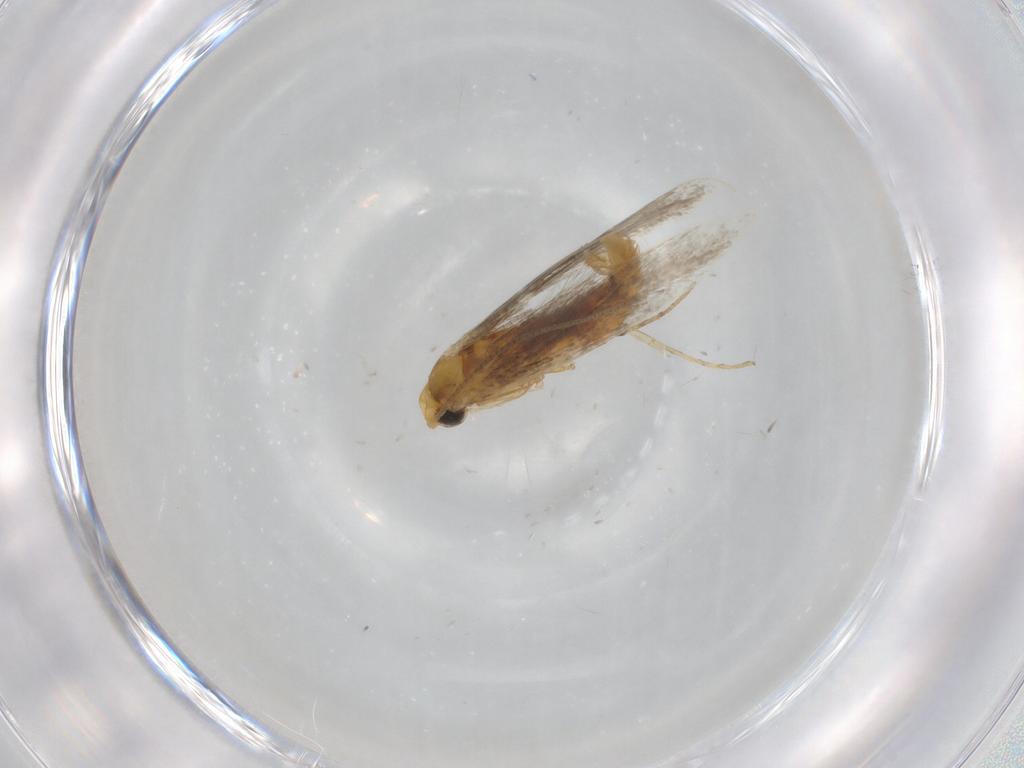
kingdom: Animalia
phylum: Arthropoda
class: Insecta
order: Lepidoptera
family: Gracillariidae
